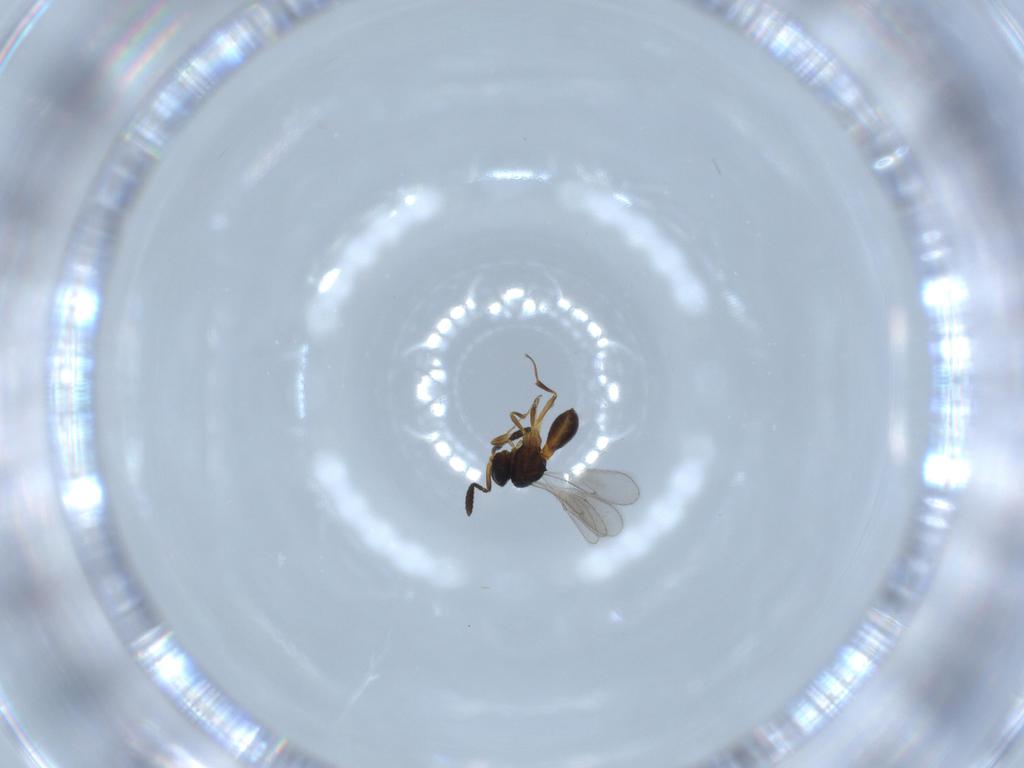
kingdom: Animalia
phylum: Arthropoda
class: Insecta
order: Hymenoptera
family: Scelionidae
